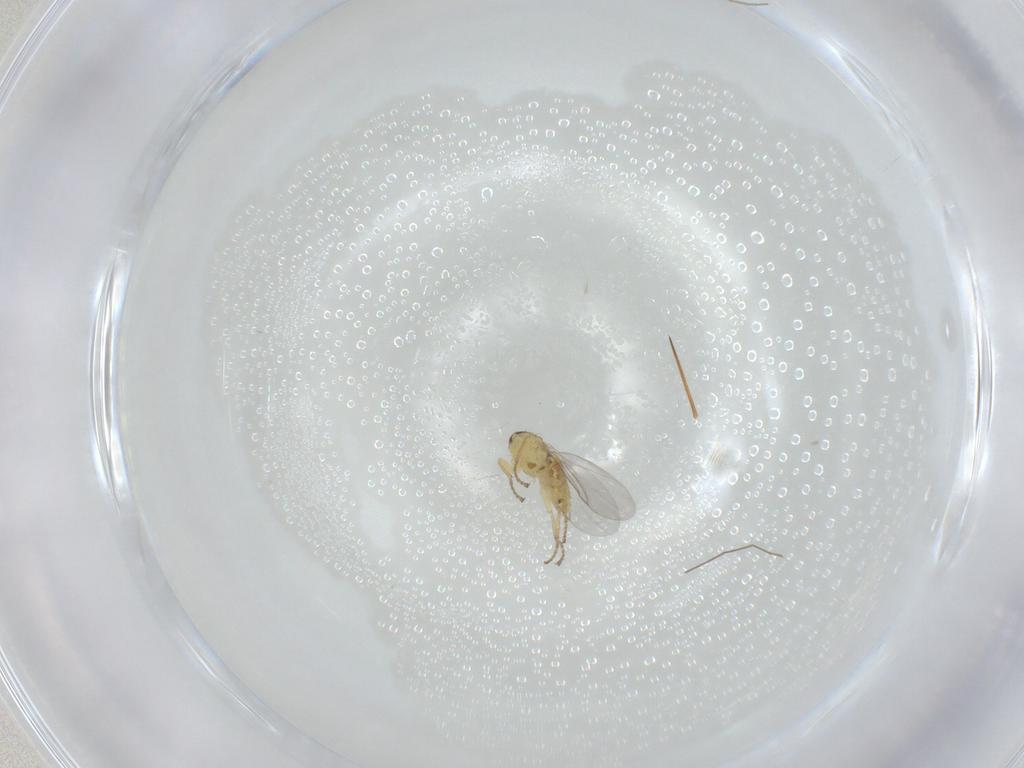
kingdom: Animalia
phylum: Arthropoda
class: Insecta
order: Diptera
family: Agromyzidae
